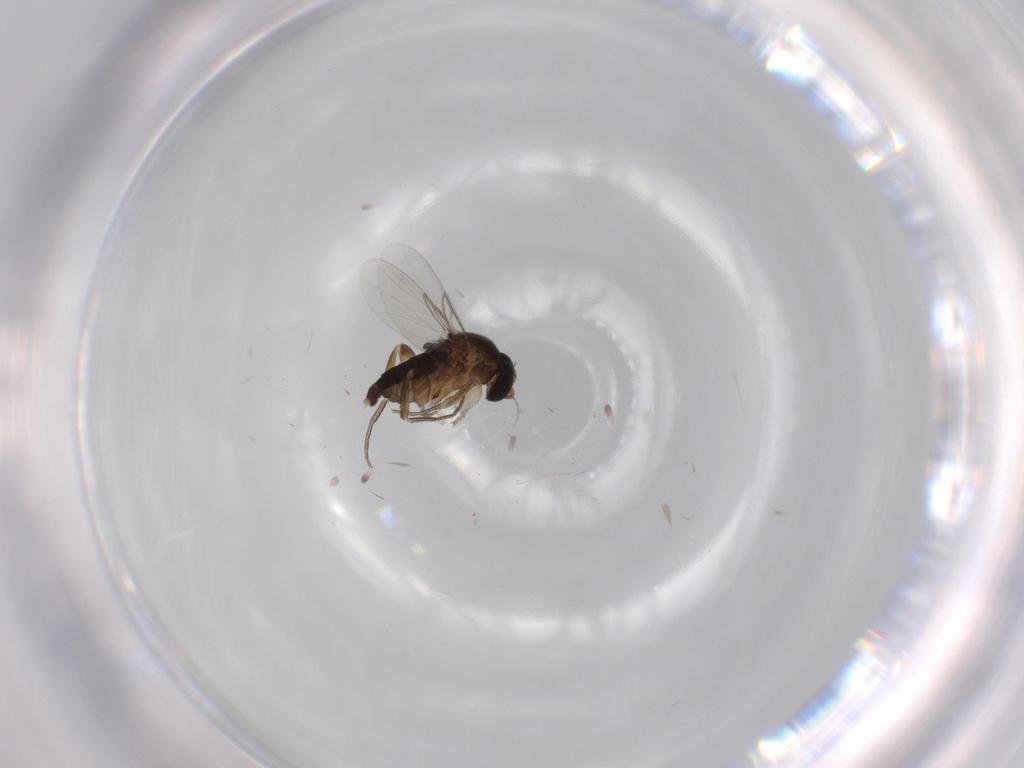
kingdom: Animalia
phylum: Arthropoda
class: Insecta
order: Diptera
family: Cecidomyiidae
